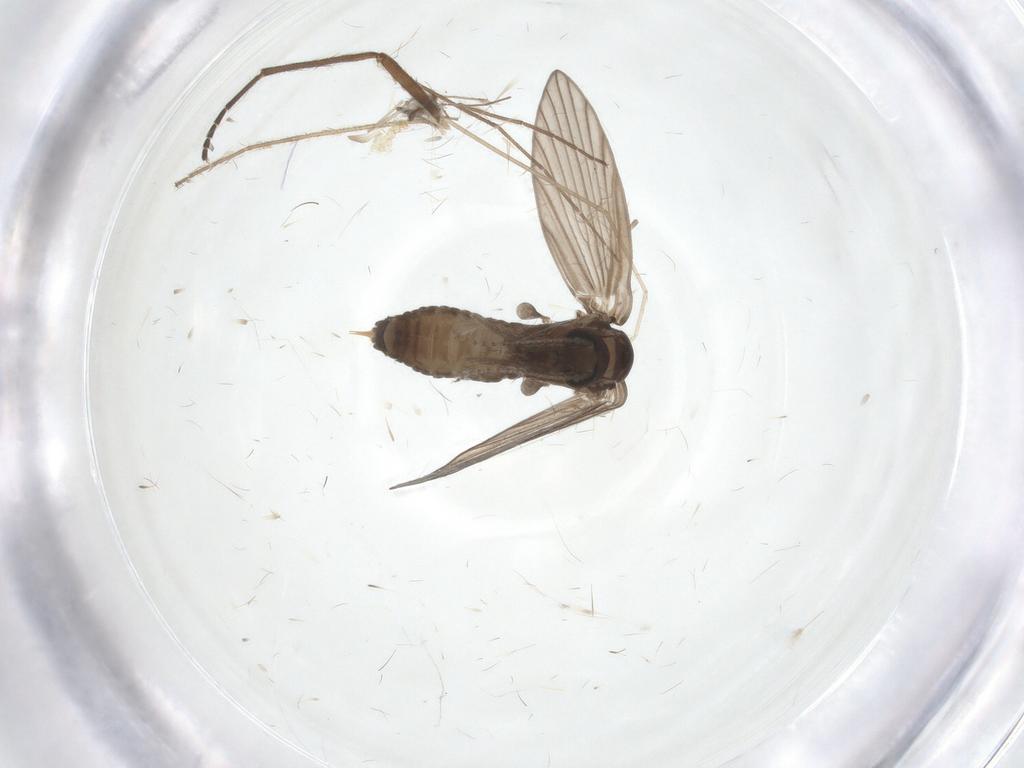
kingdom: Animalia
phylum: Arthropoda
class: Insecta
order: Diptera
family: Psychodidae
